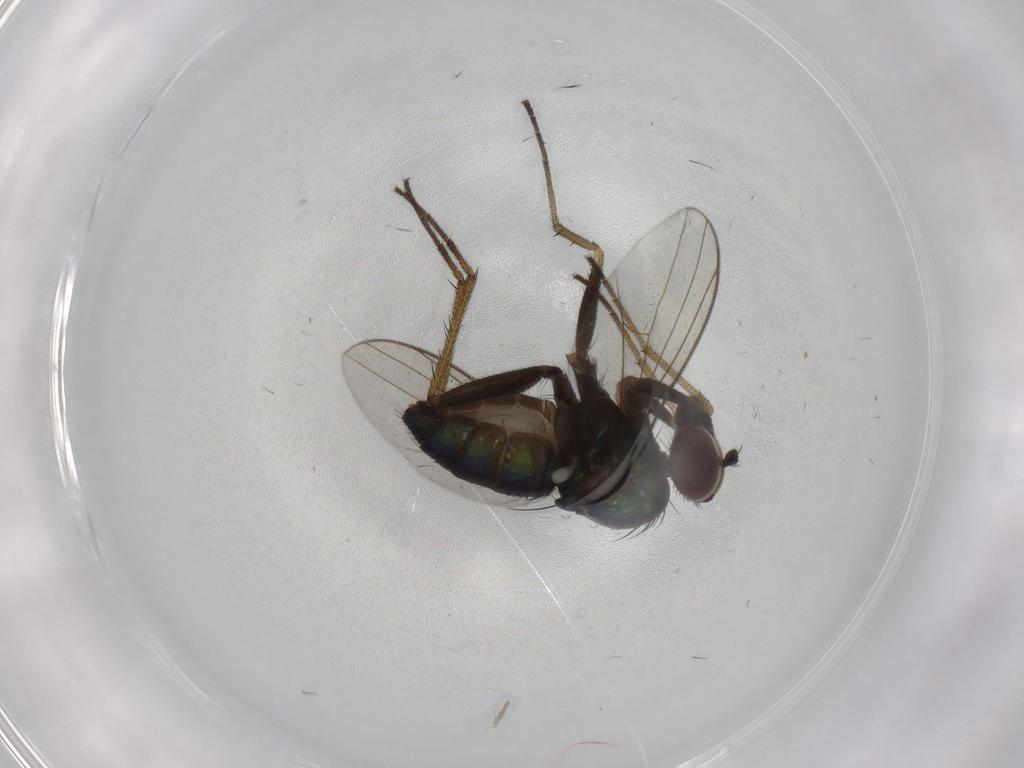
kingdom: Animalia
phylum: Arthropoda
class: Insecta
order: Diptera
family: Dolichopodidae
